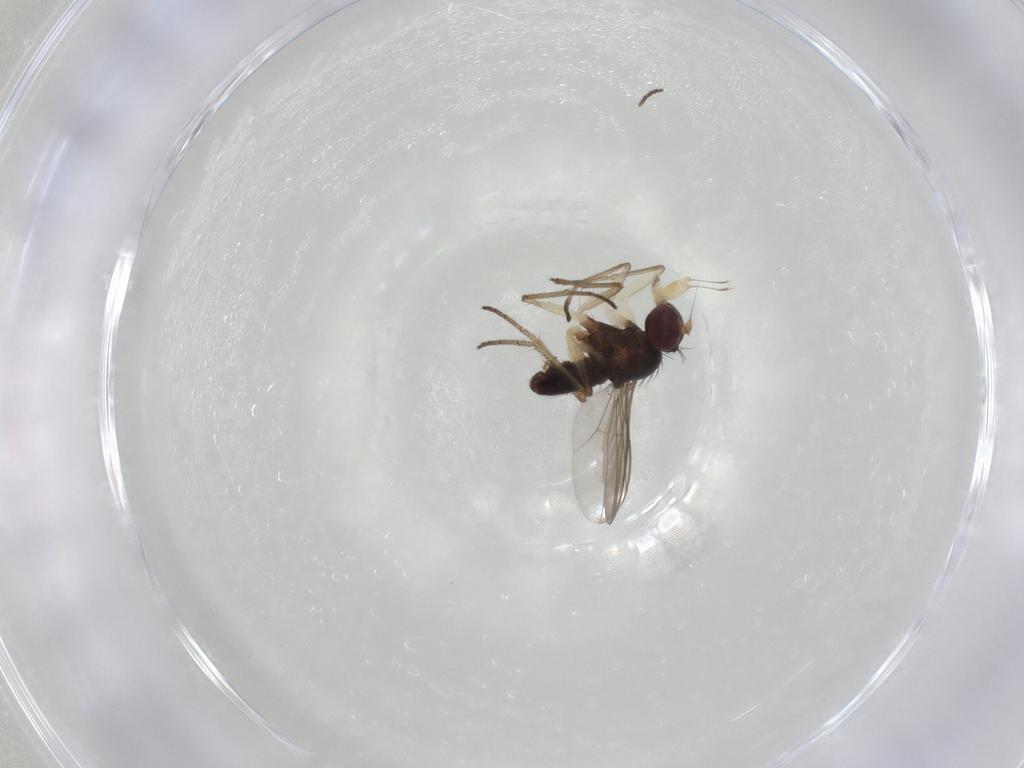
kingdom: Animalia
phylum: Arthropoda
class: Insecta
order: Diptera
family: Dolichopodidae
